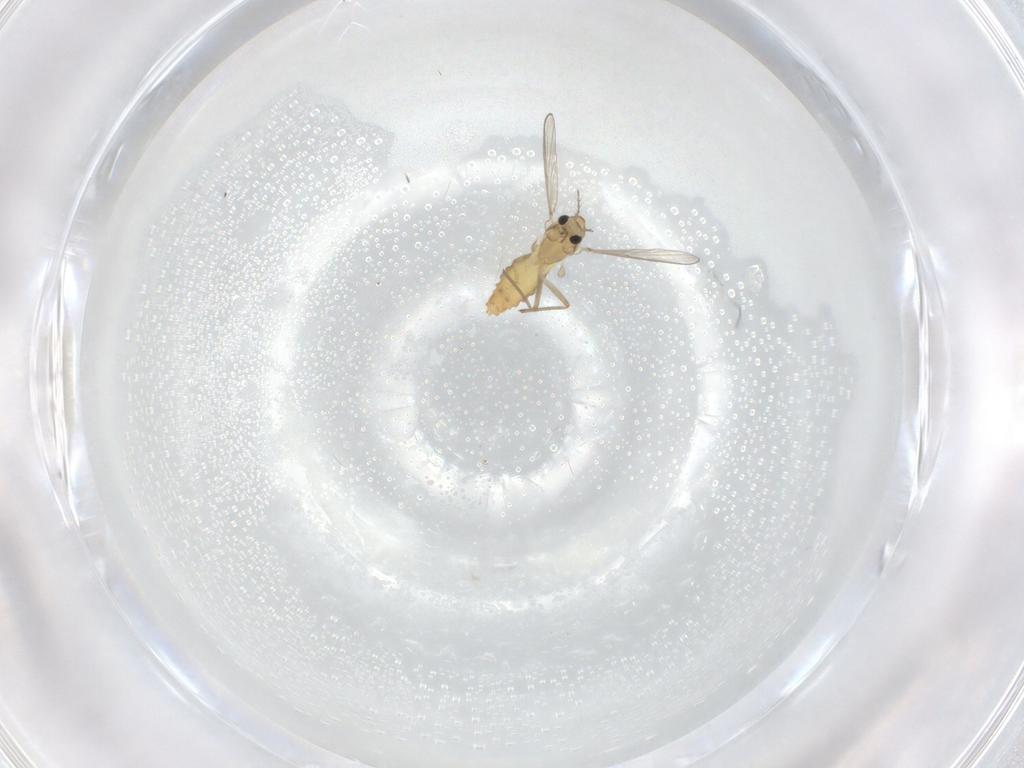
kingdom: Animalia
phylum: Arthropoda
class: Insecta
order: Diptera
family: Chironomidae
